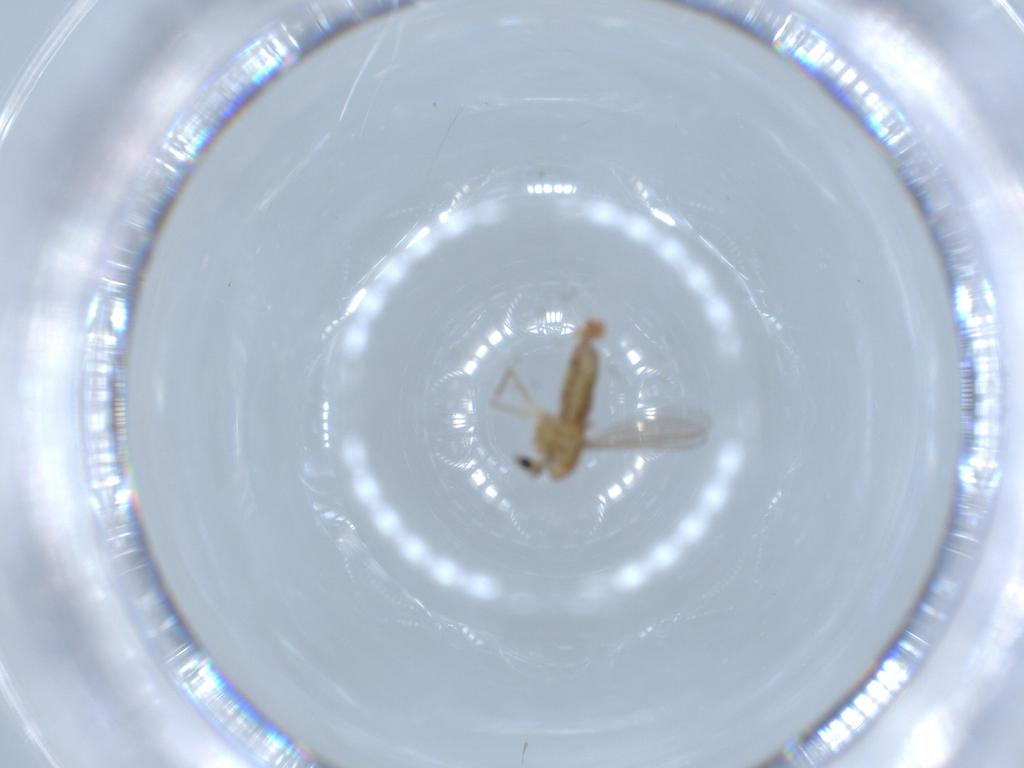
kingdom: Animalia
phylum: Arthropoda
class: Insecta
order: Diptera
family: Chironomidae
